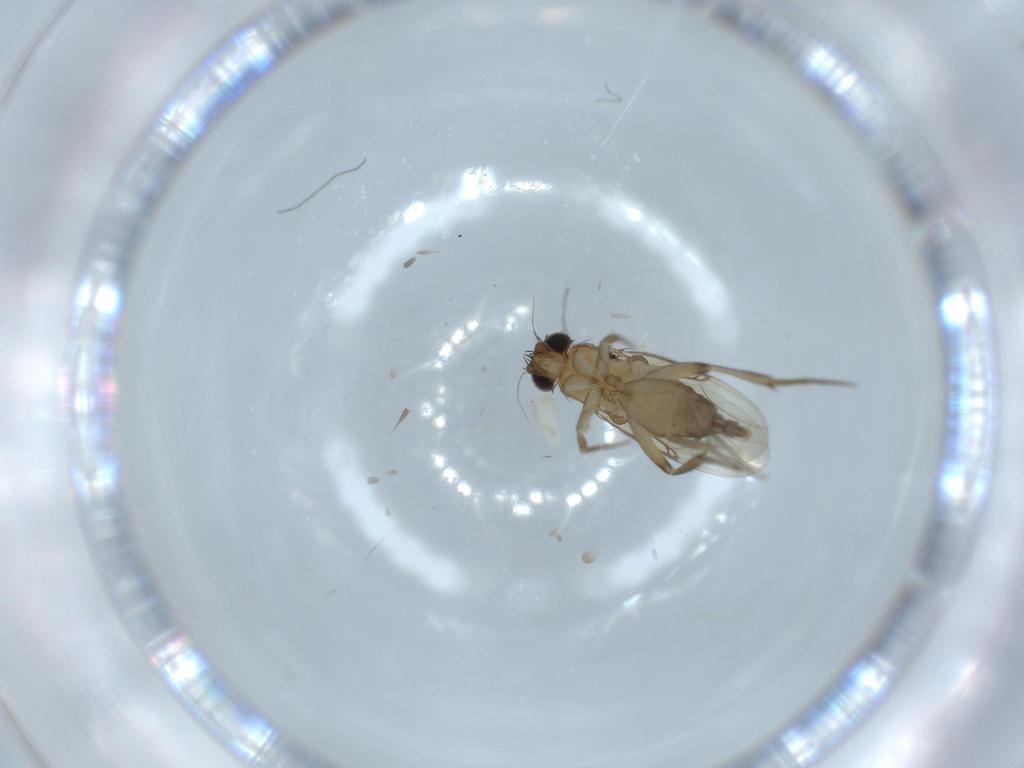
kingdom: Animalia
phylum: Arthropoda
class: Insecta
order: Diptera
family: Phoridae
